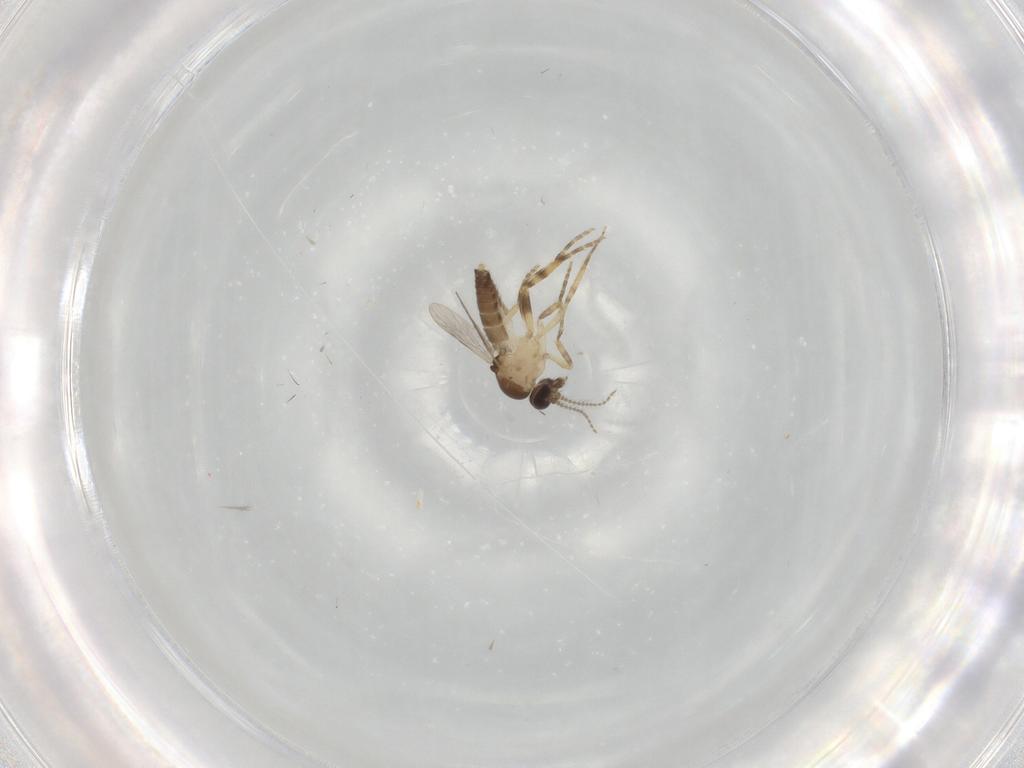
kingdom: Animalia
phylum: Arthropoda
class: Insecta
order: Diptera
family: Ceratopogonidae
